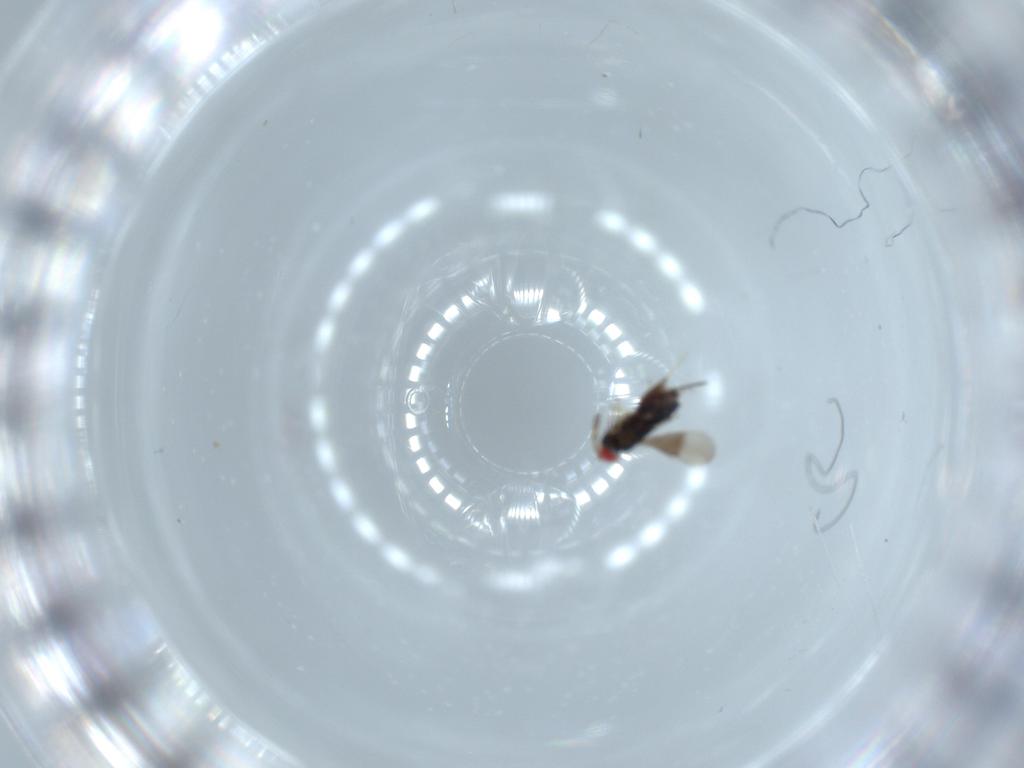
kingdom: Animalia
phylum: Arthropoda
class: Insecta
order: Hymenoptera
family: Azotidae
